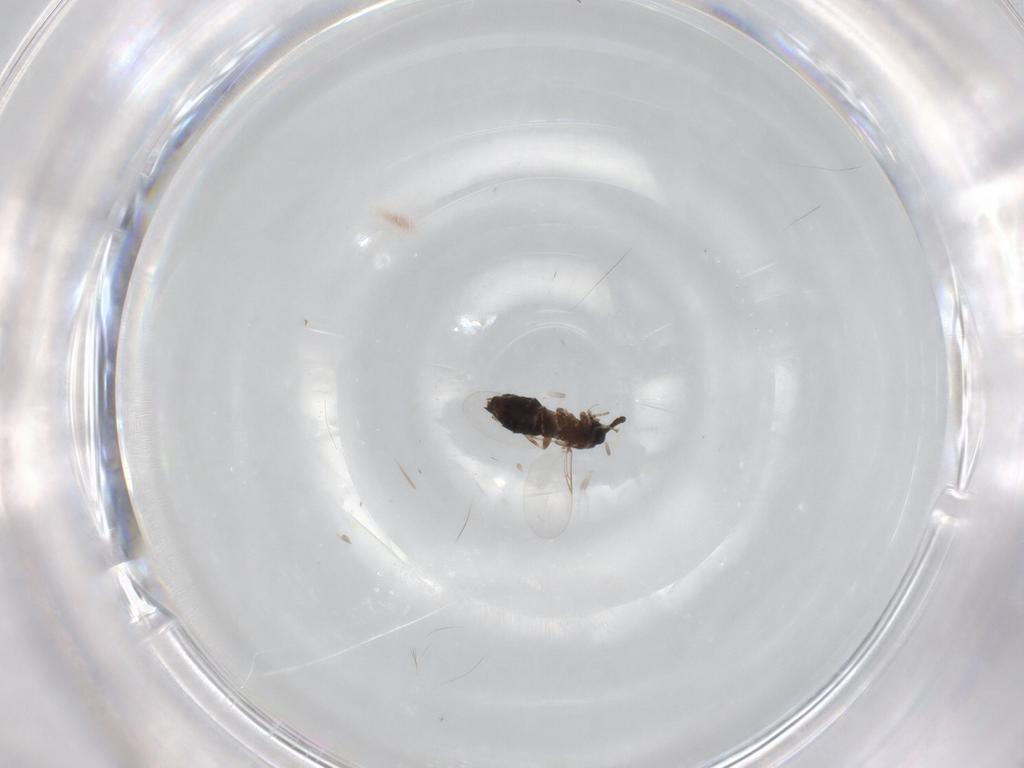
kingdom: Animalia
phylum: Arthropoda
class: Insecta
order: Diptera
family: Scatopsidae
